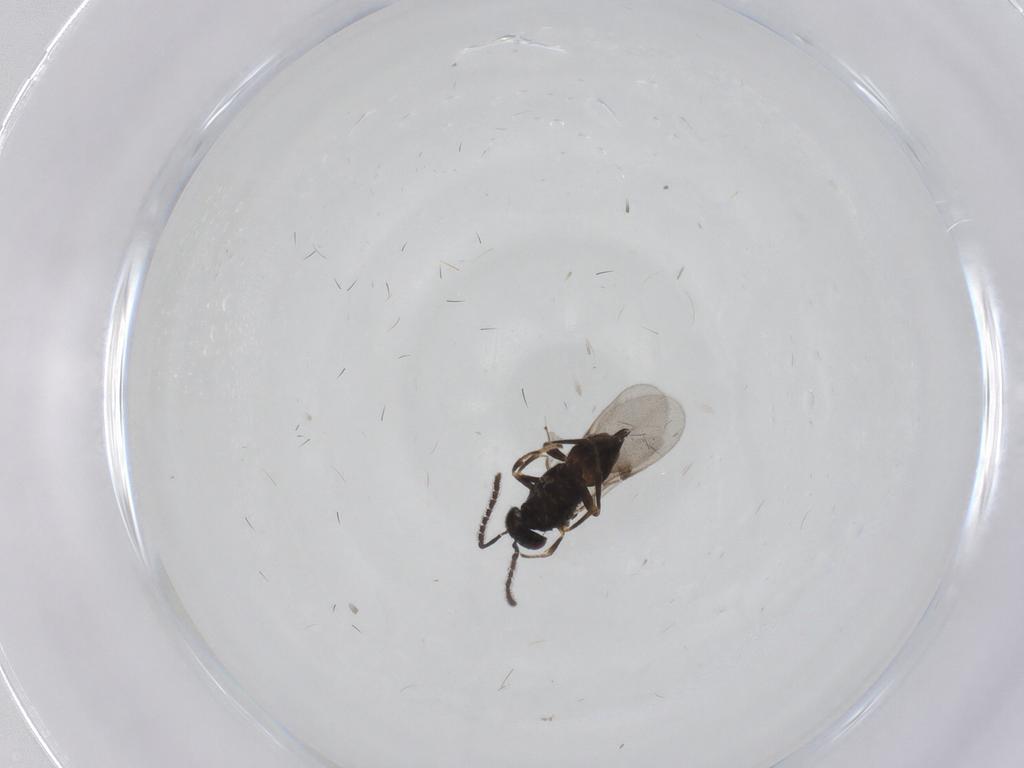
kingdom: Animalia
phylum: Arthropoda
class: Insecta
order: Hymenoptera
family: Encyrtidae
